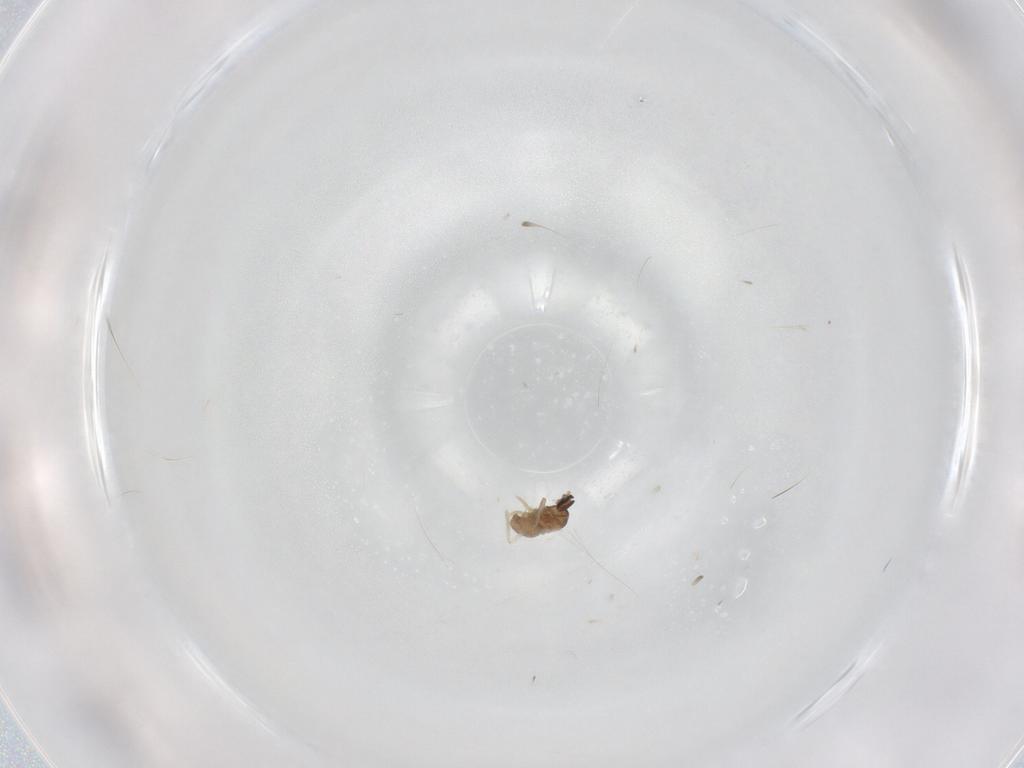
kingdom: Animalia
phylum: Arthropoda
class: Insecta
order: Diptera
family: Cecidomyiidae
